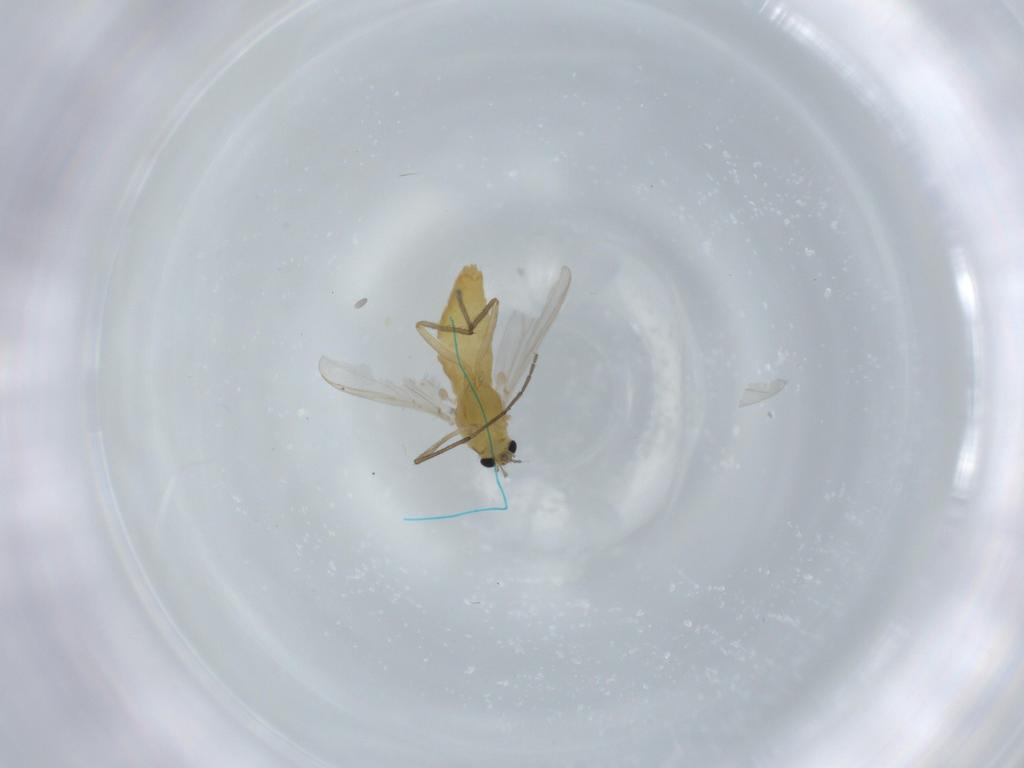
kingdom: Animalia
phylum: Arthropoda
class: Insecta
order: Diptera
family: Chironomidae
